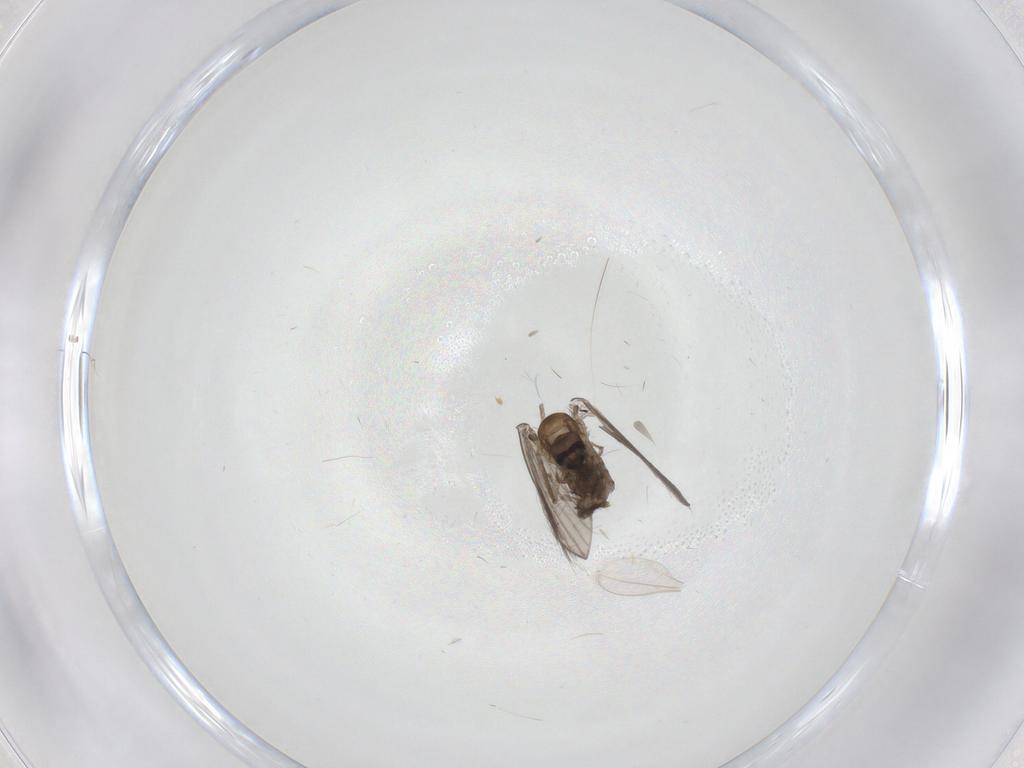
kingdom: Animalia
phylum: Arthropoda
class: Insecta
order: Diptera
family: Psychodidae
